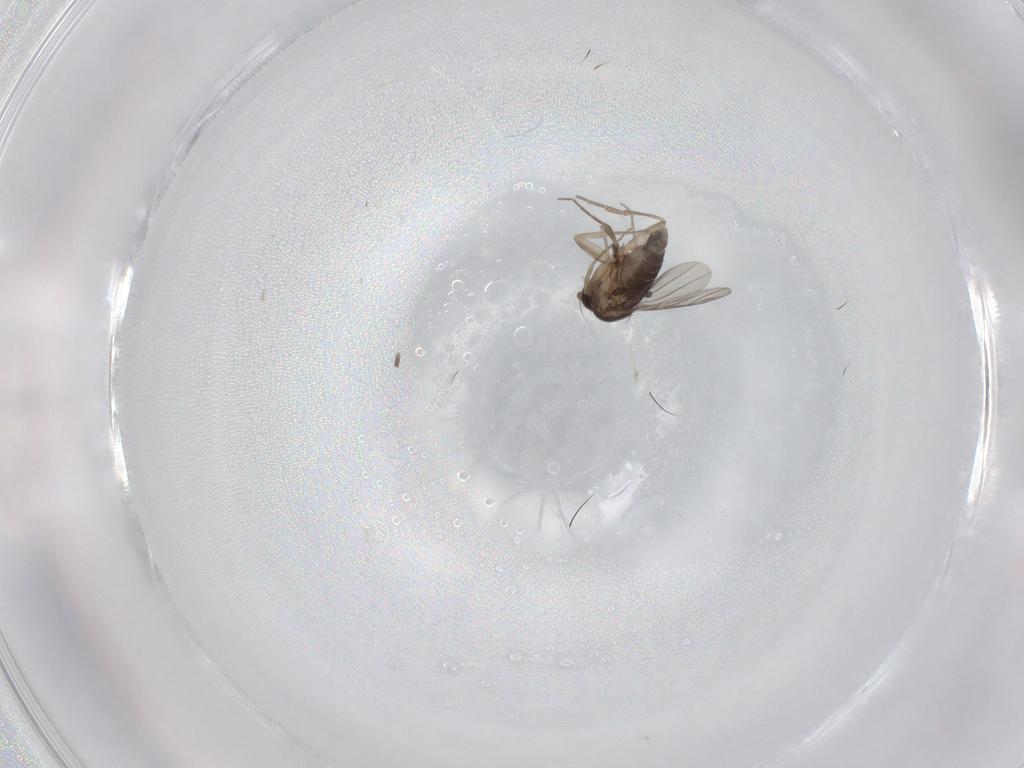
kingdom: Animalia
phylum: Arthropoda
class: Insecta
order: Diptera
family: Phoridae
